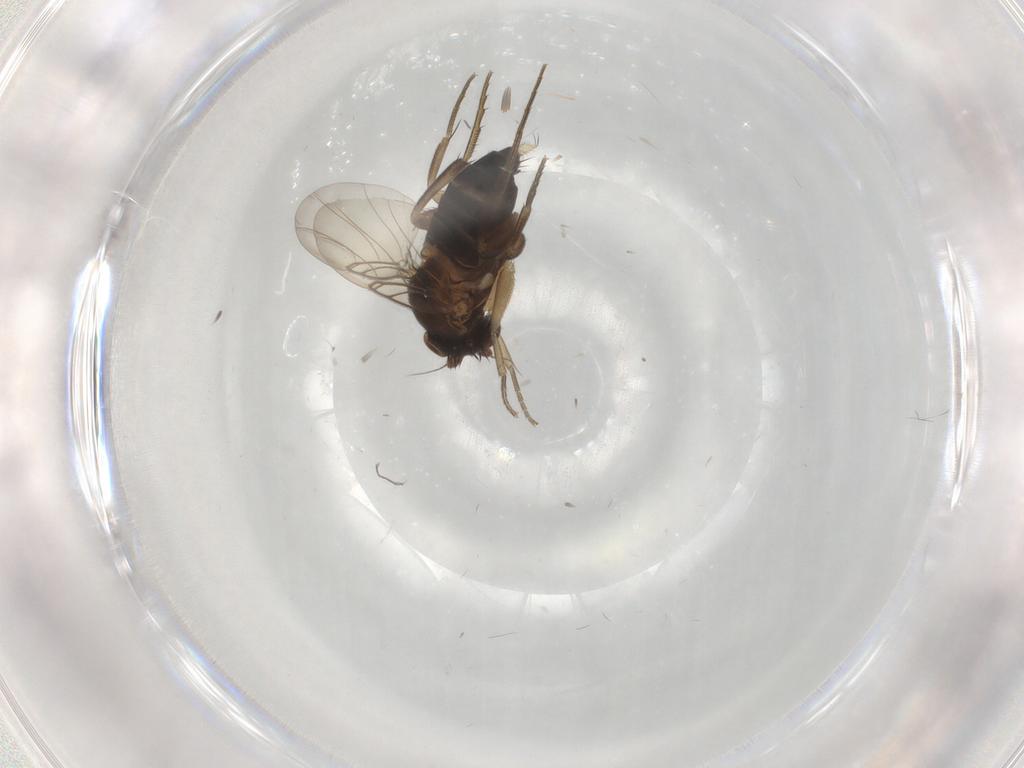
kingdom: Animalia
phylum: Arthropoda
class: Insecta
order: Diptera
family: Phoridae
